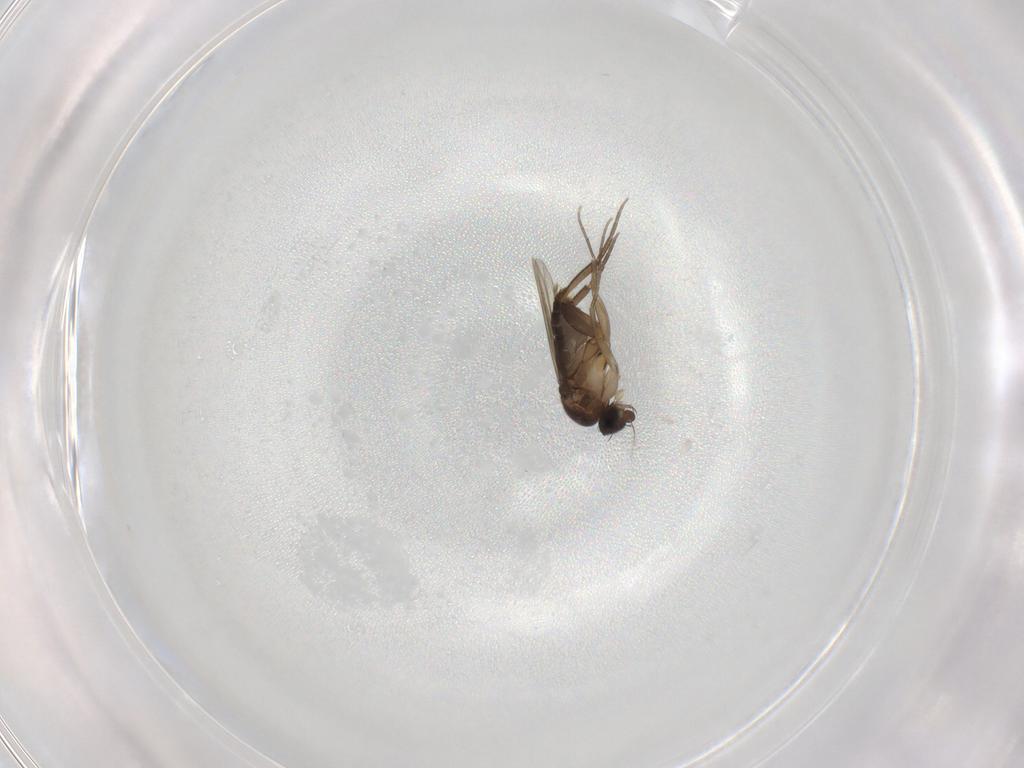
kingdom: Animalia
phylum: Arthropoda
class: Insecta
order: Diptera
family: Phoridae
